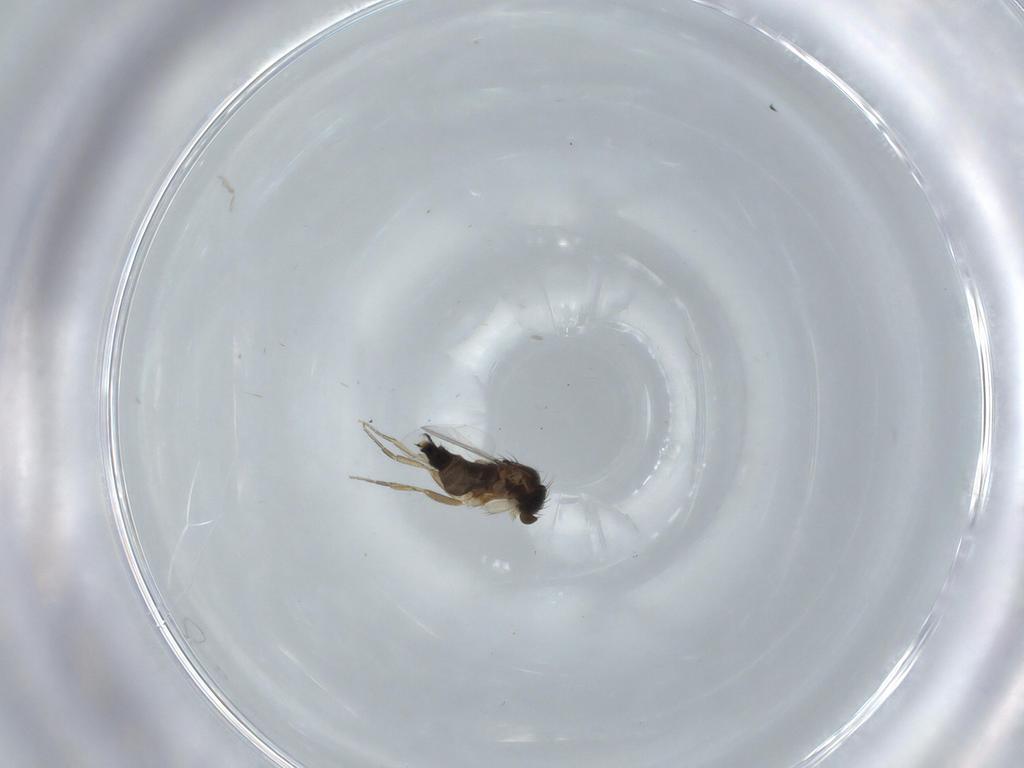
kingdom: Animalia
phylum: Arthropoda
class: Insecta
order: Diptera
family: Phoridae
